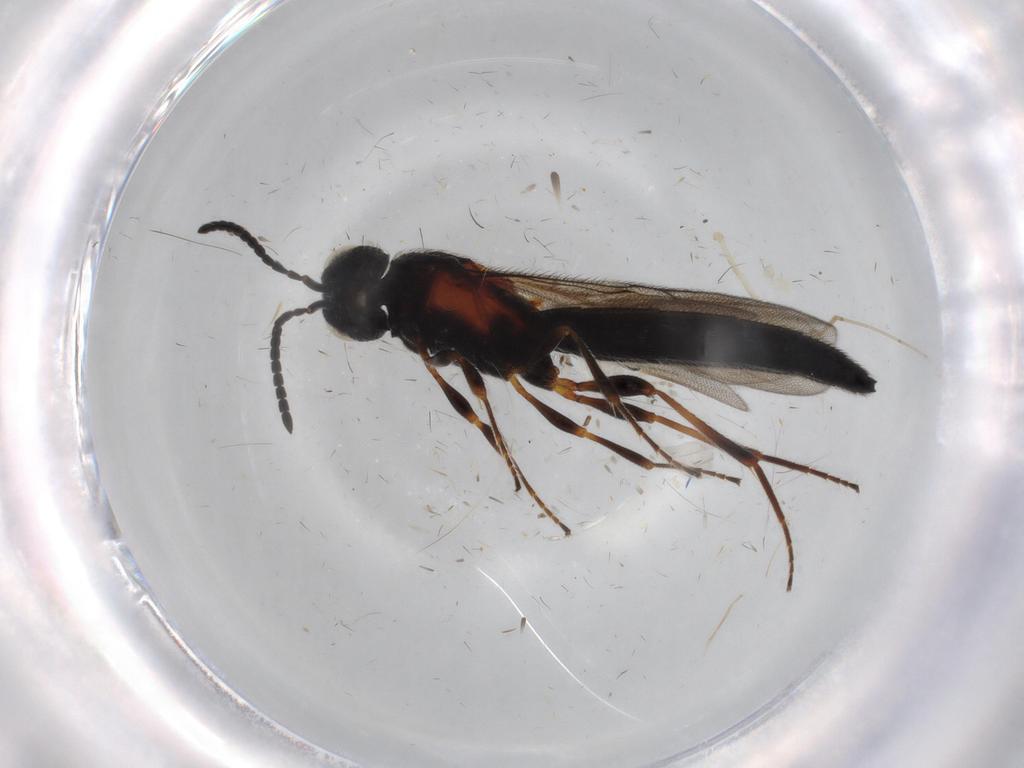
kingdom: Animalia
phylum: Arthropoda
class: Insecta
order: Hymenoptera
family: Scelionidae
